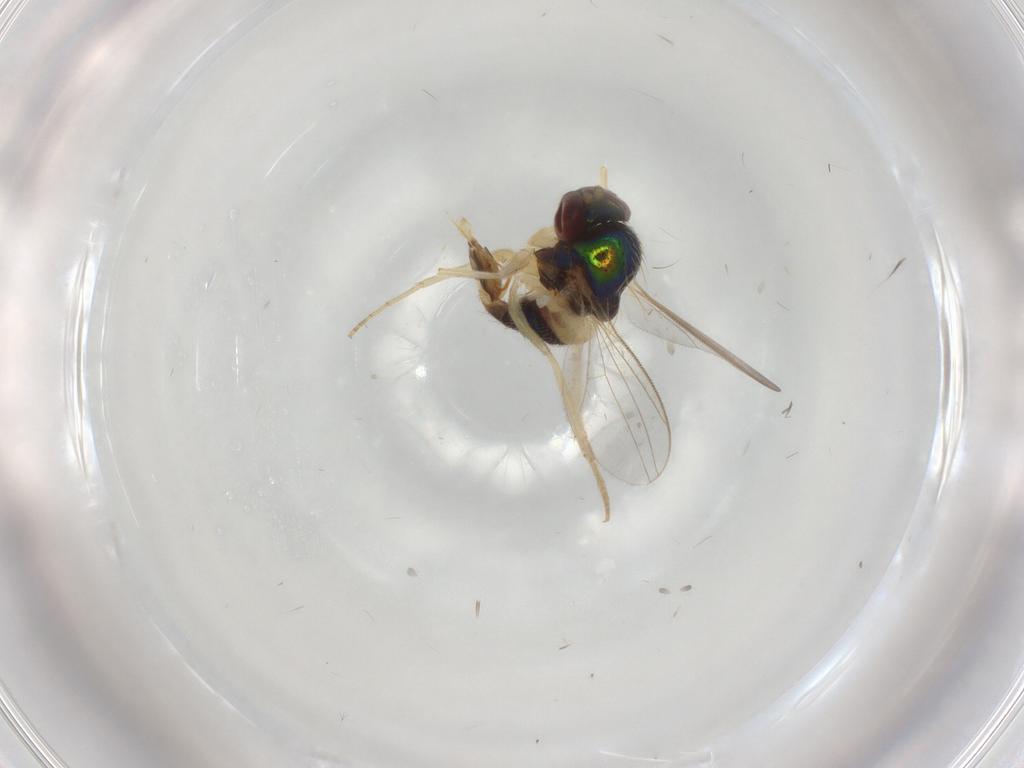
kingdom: Animalia
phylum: Arthropoda
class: Insecta
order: Diptera
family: Dolichopodidae
